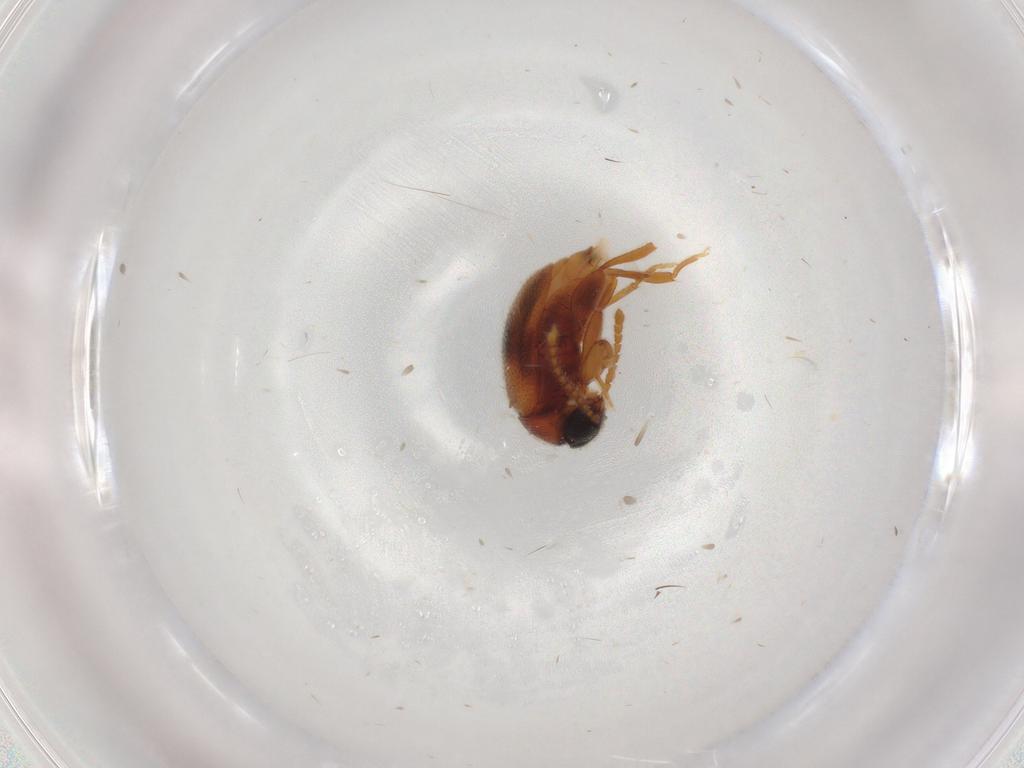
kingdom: Animalia
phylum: Arthropoda
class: Insecta
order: Coleoptera
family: Aderidae
